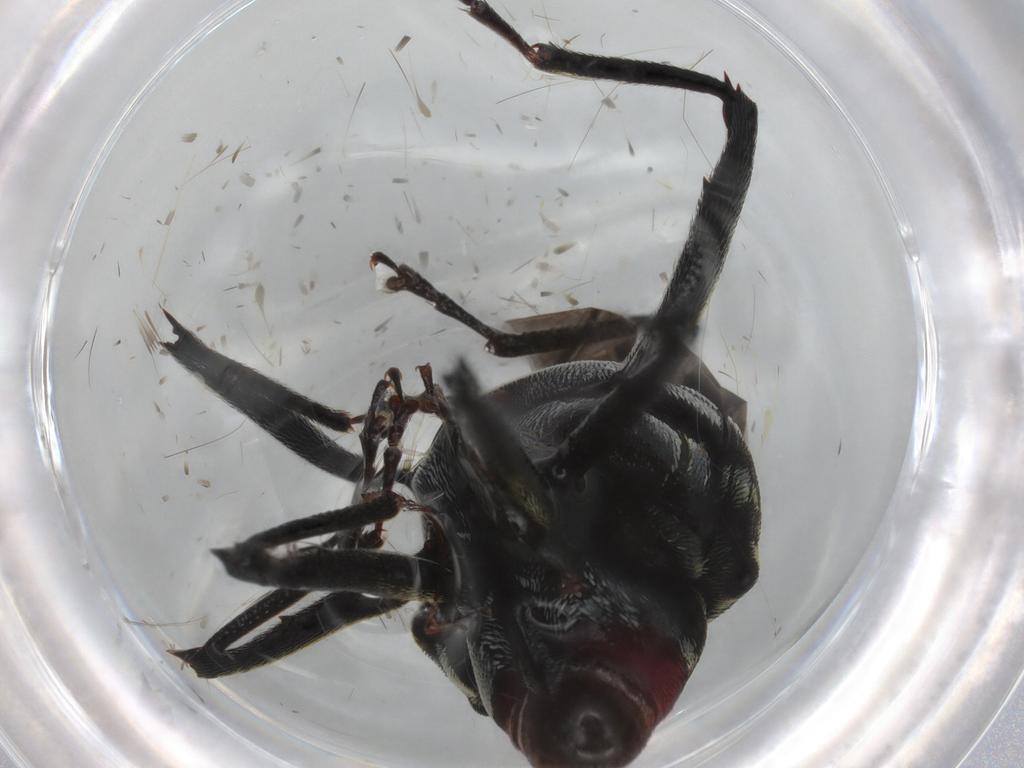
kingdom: Animalia
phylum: Arthropoda
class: Insecta
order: Coleoptera
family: Curculionidae
